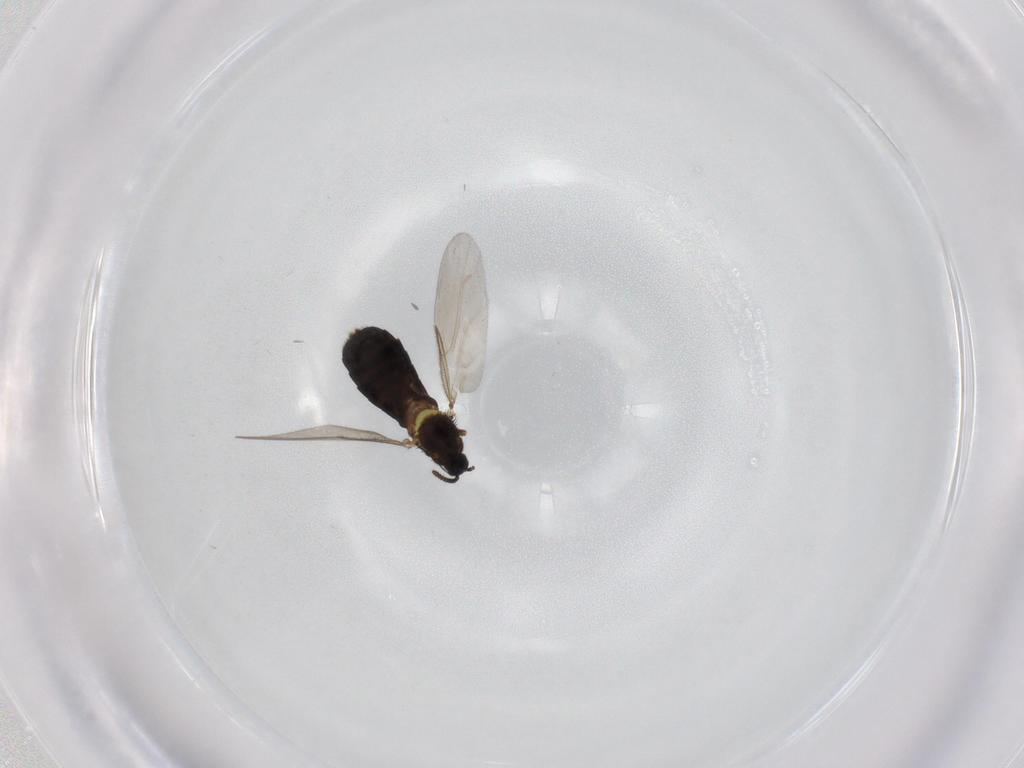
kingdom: Animalia
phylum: Arthropoda
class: Insecta
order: Diptera
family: Scatopsidae
